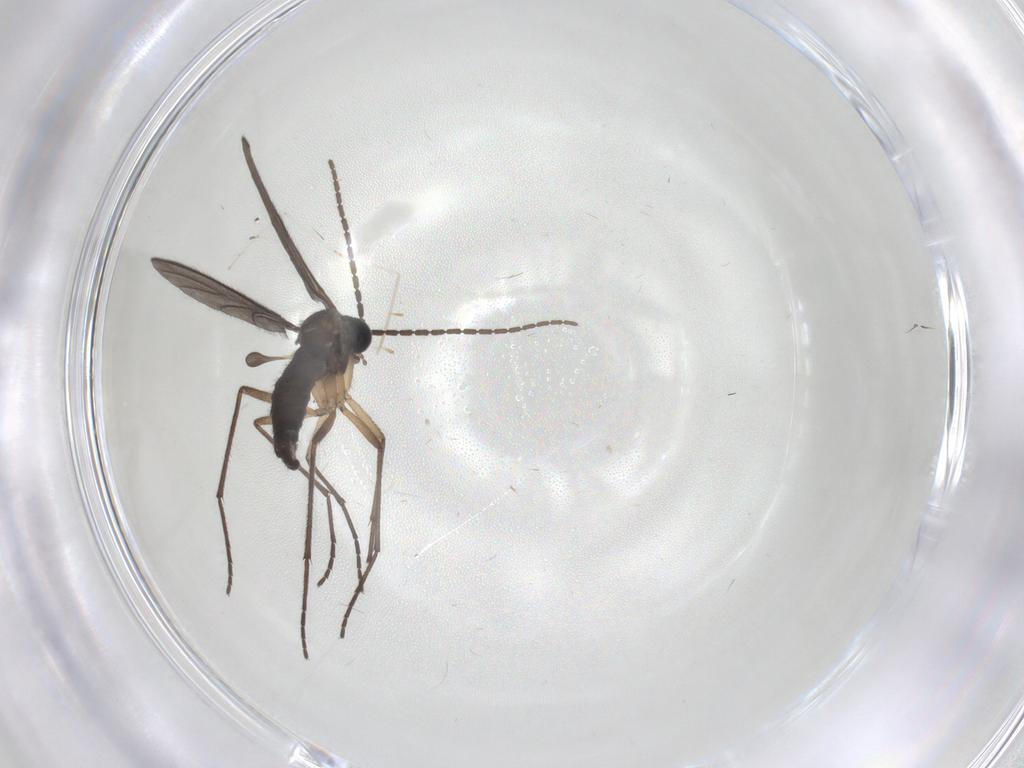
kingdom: Animalia
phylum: Arthropoda
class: Insecta
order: Diptera
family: Sciaridae
